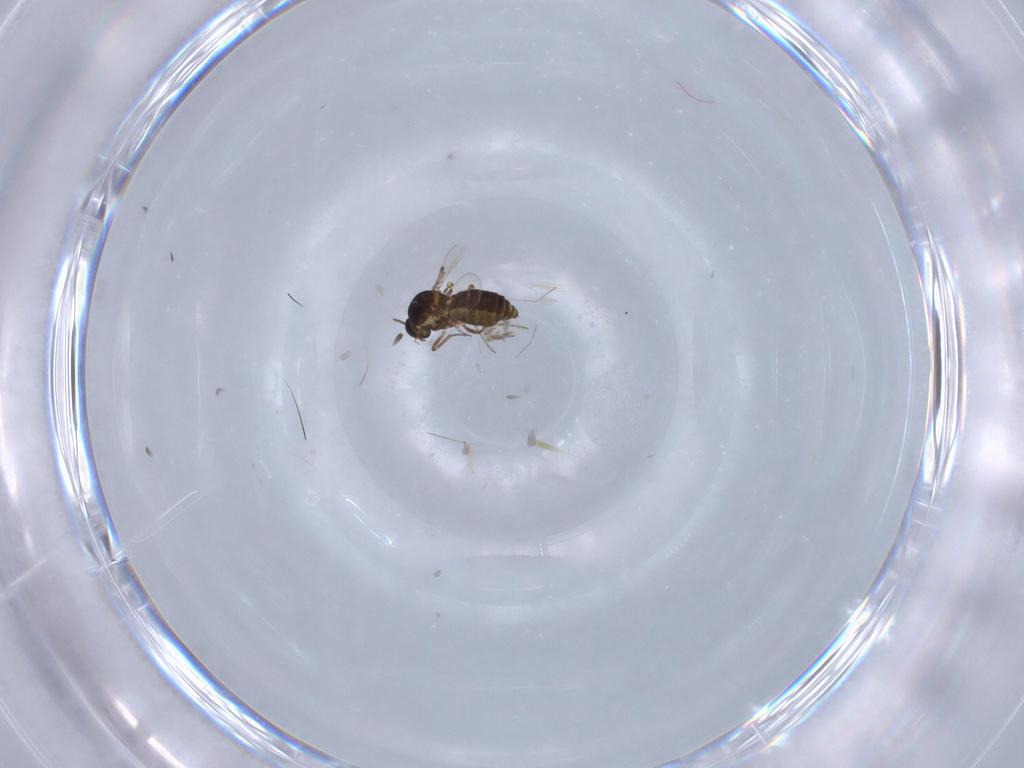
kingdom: Animalia
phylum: Arthropoda
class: Insecta
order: Diptera
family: Ceratopogonidae
